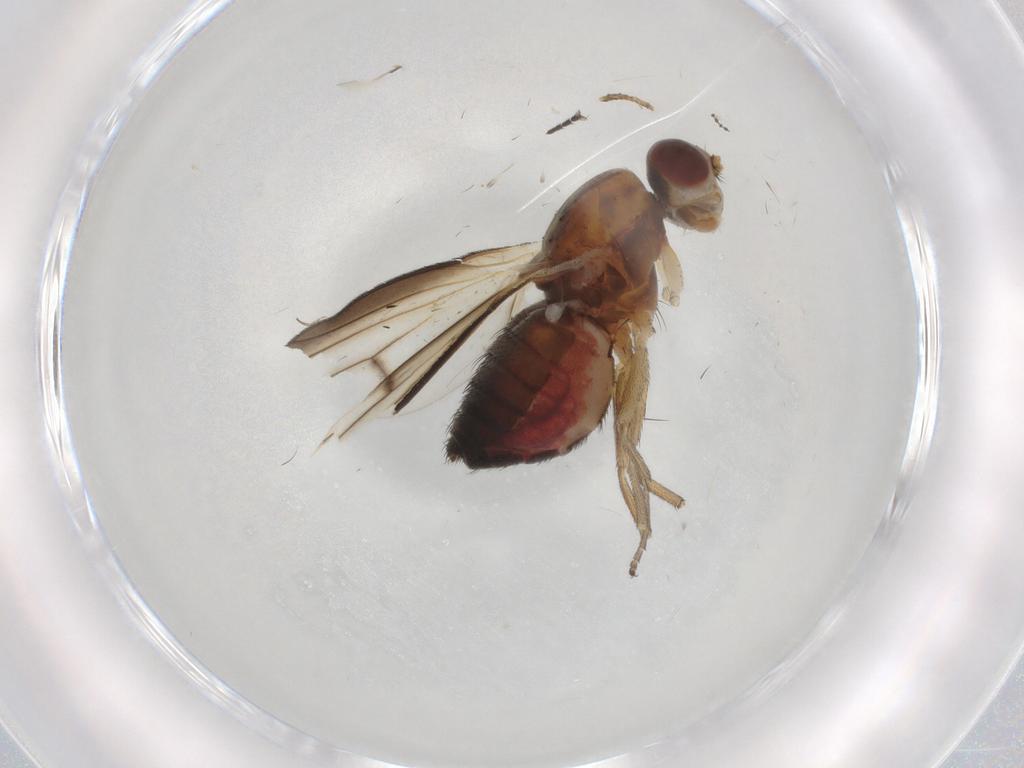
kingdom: Animalia
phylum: Arthropoda
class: Insecta
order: Diptera
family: Heleomyzidae
